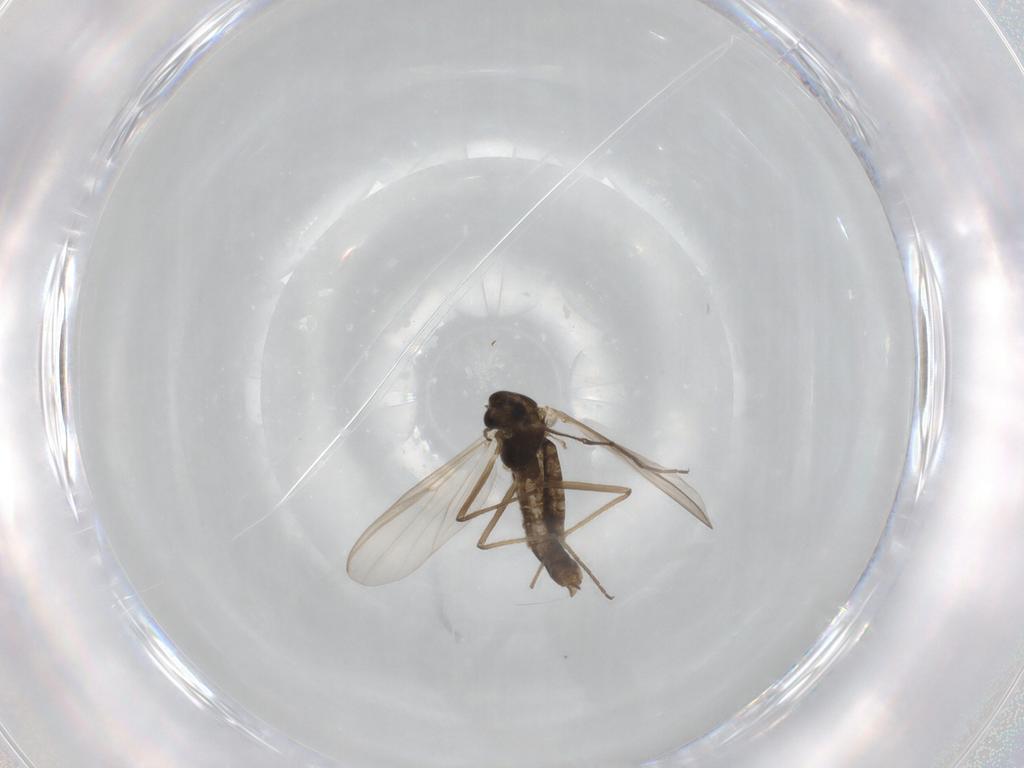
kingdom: Animalia
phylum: Arthropoda
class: Insecta
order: Diptera
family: Chironomidae
